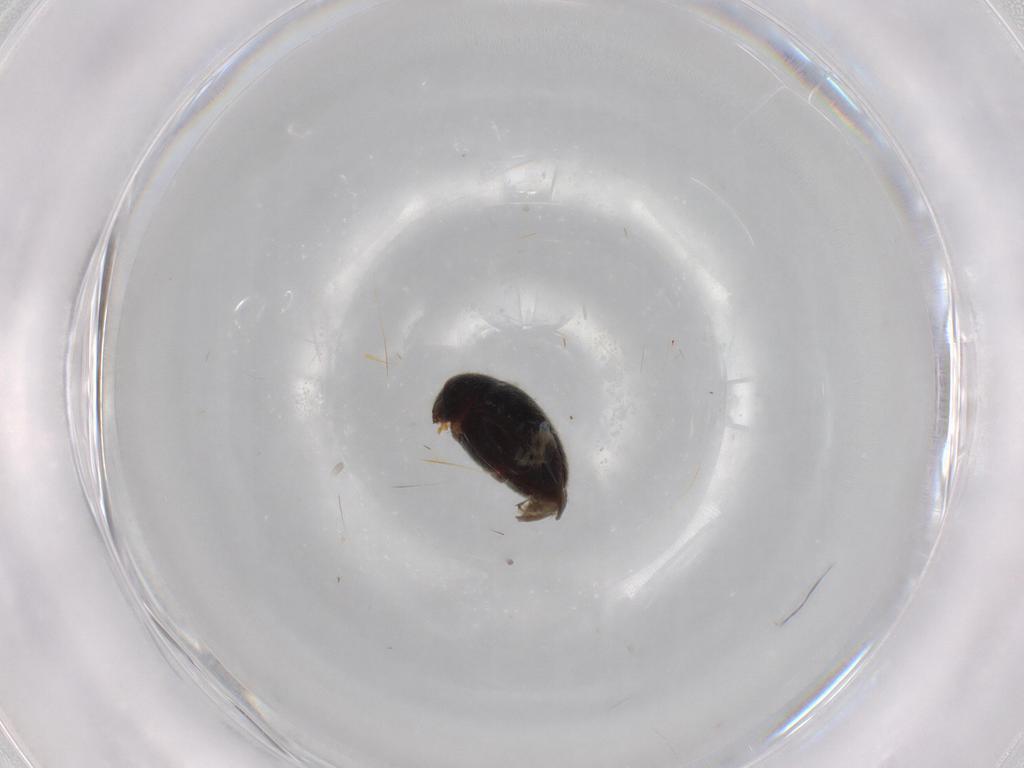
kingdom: Animalia
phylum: Arthropoda
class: Insecta
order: Coleoptera
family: Ptinidae
